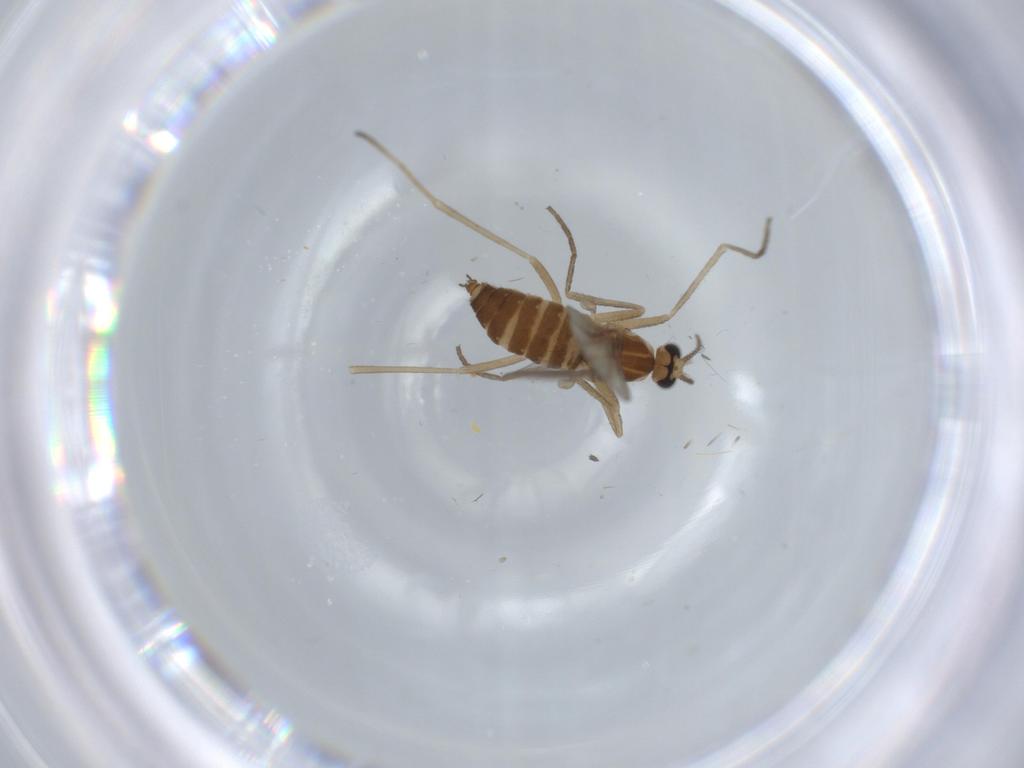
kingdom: Animalia
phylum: Arthropoda
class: Insecta
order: Diptera
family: Cecidomyiidae
